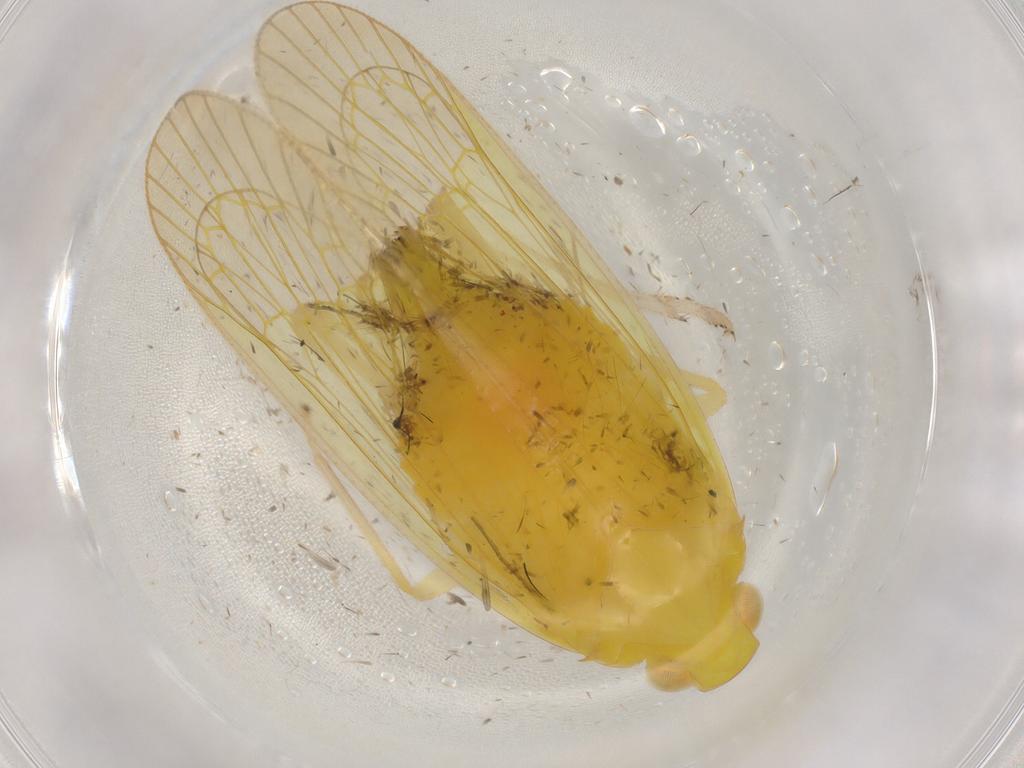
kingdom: Animalia
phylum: Arthropoda
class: Insecta
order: Hemiptera
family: Tropiduchidae
